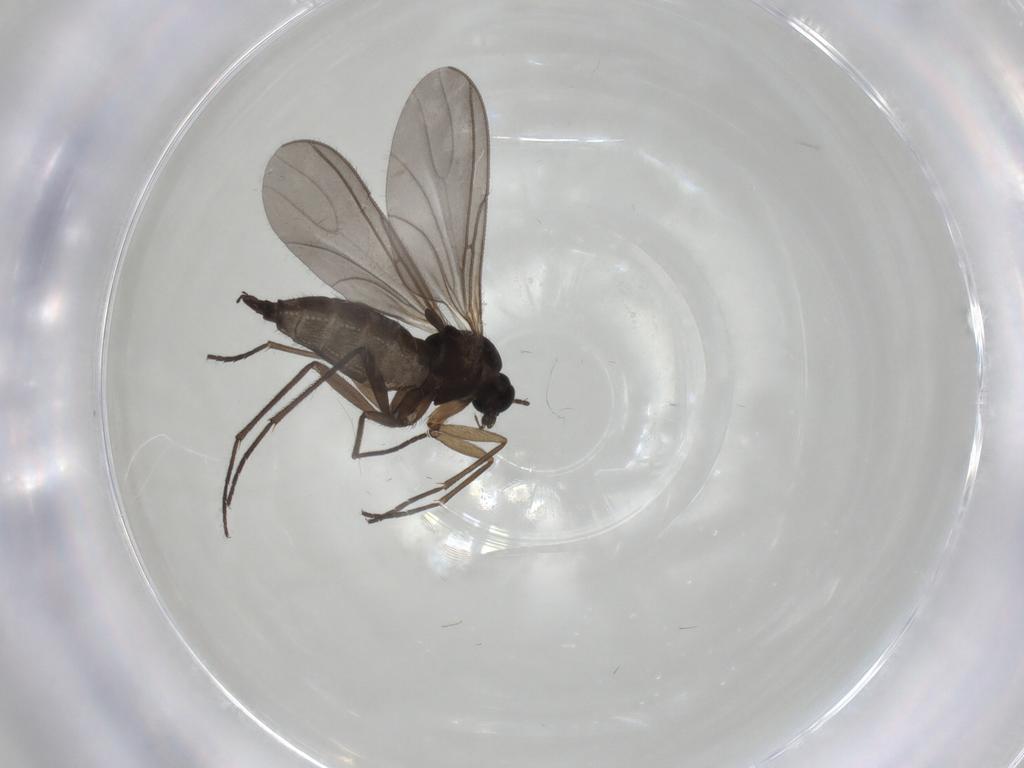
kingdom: Animalia
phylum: Arthropoda
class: Insecta
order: Diptera
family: Sciaridae
